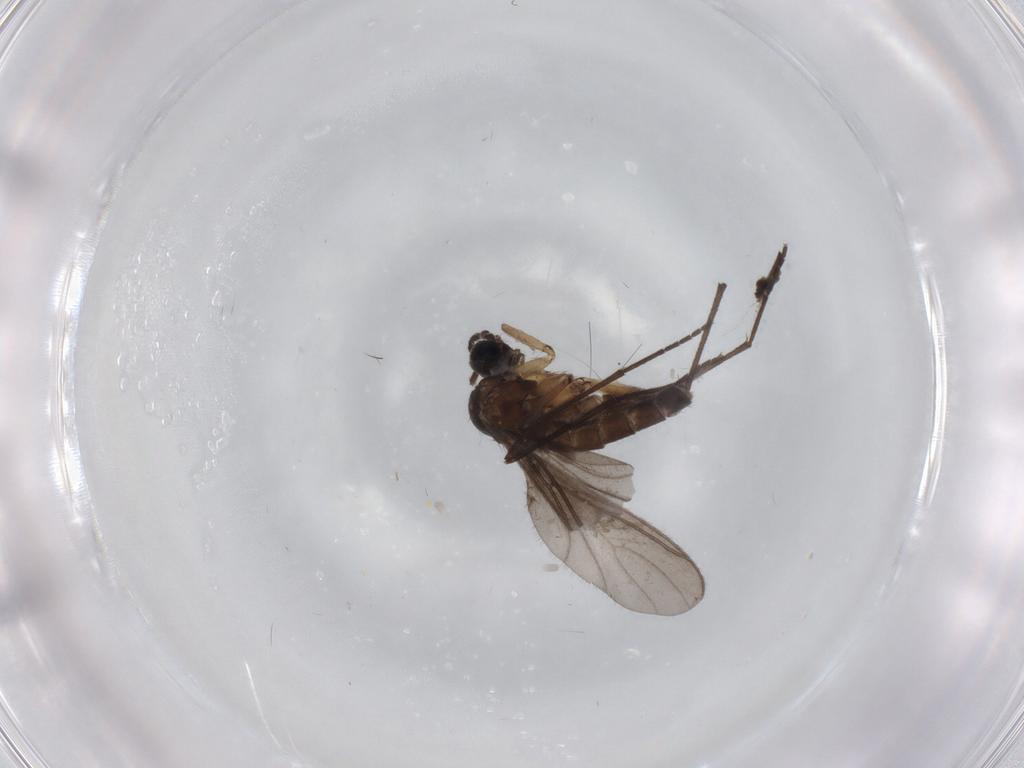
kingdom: Animalia
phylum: Arthropoda
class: Insecta
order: Diptera
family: Sciaridae
